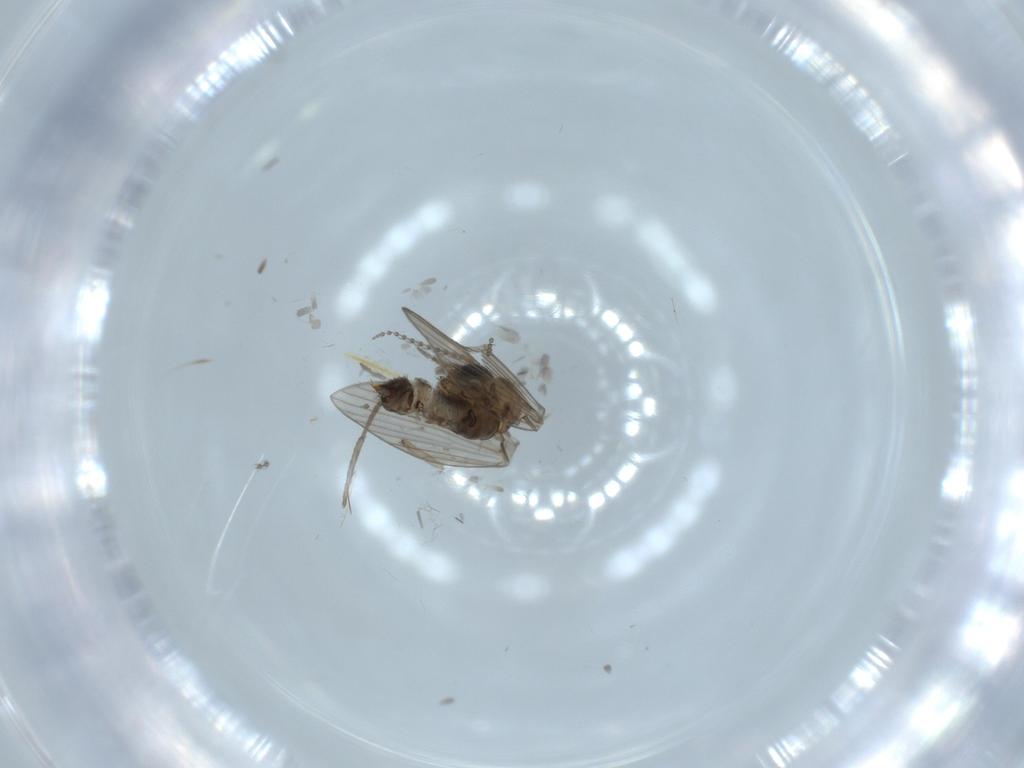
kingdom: Animalia
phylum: Arthropoda
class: Insecta
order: Diptera
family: Psychodidae
